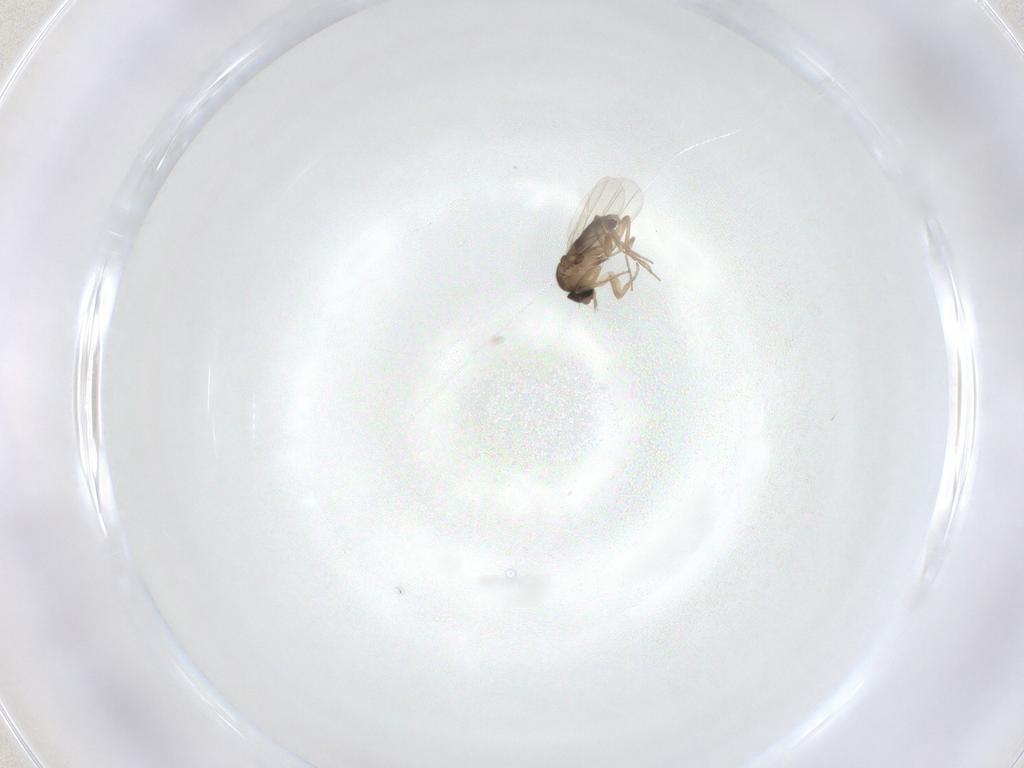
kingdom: Animalia
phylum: Arthropoda
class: Insecta
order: Diptera
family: Phoridae
